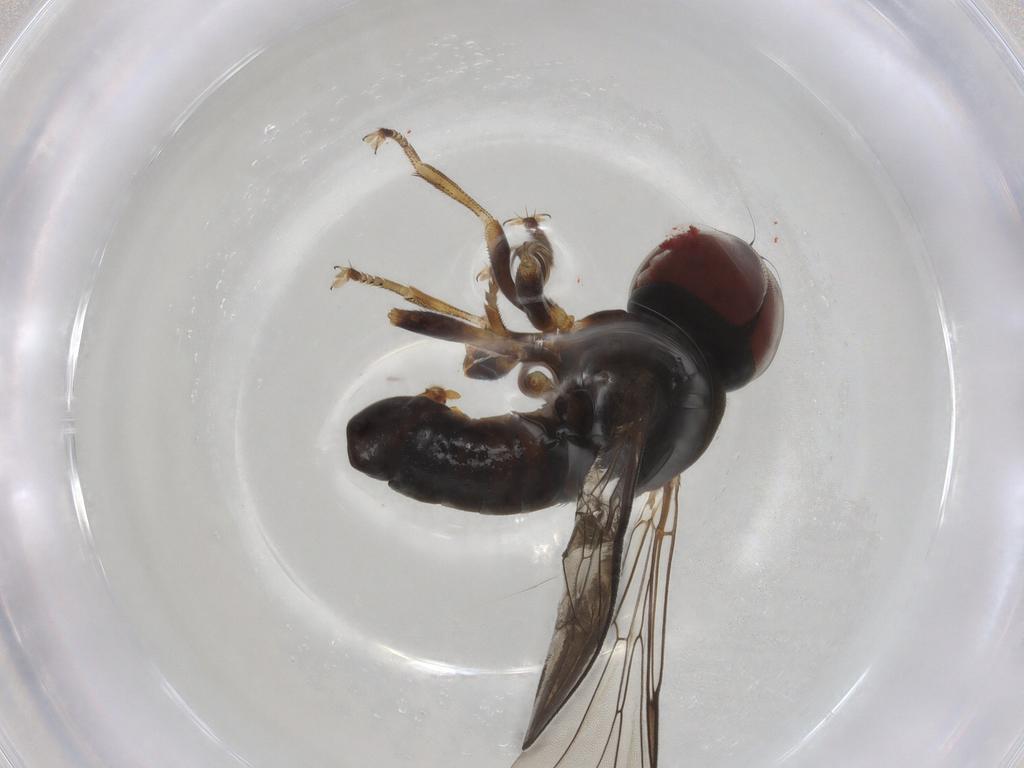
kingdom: Animalia
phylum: Arthropoda
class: Insecta
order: Diptera
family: Pipunculidae
